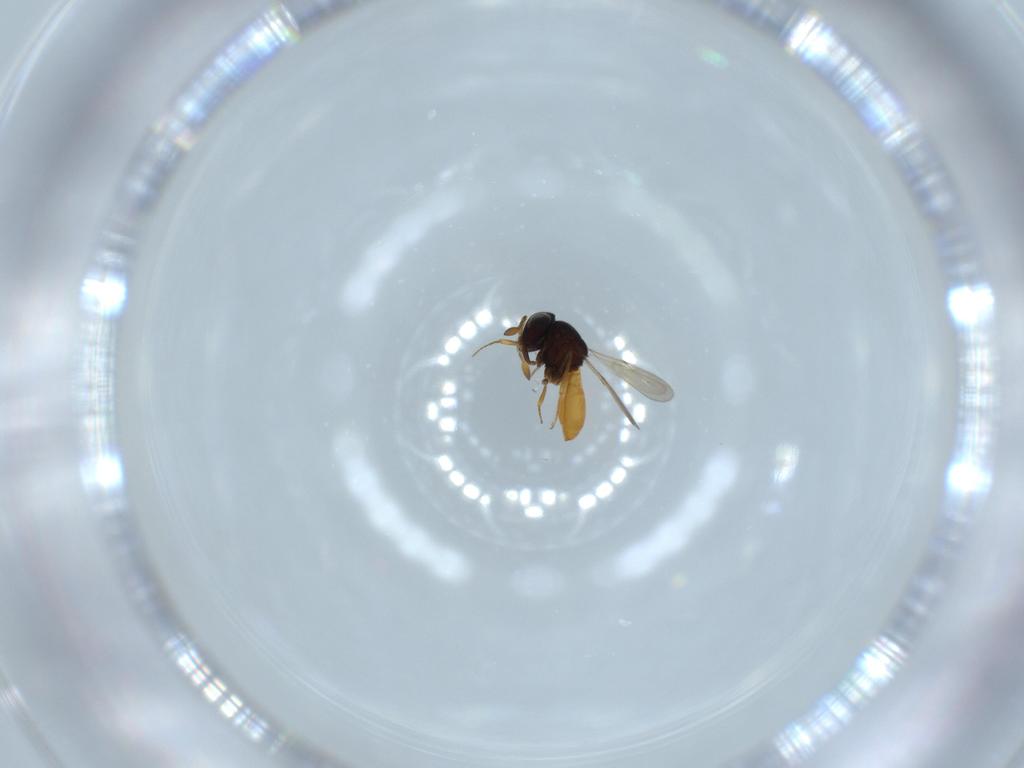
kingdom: Animalia
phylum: Arthropoda
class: Insecta
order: Hymenoptera
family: Scelionidae
